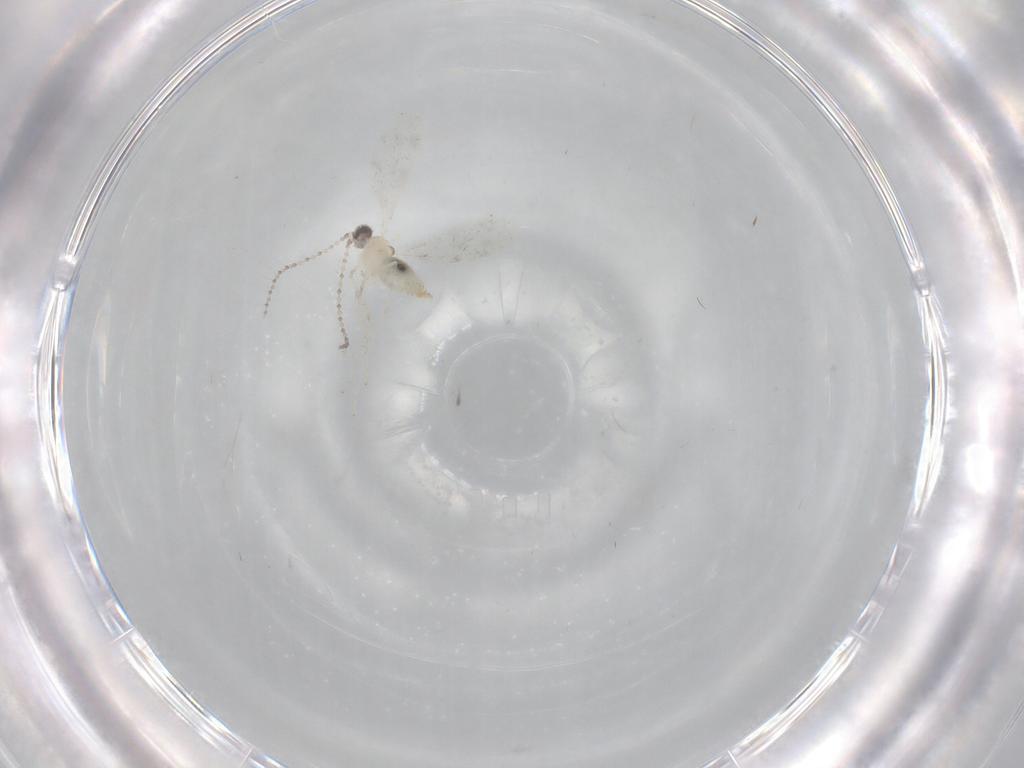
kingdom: Animalia
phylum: Arthropoda
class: Insecta
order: Diptera
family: Cecidomyiidae
